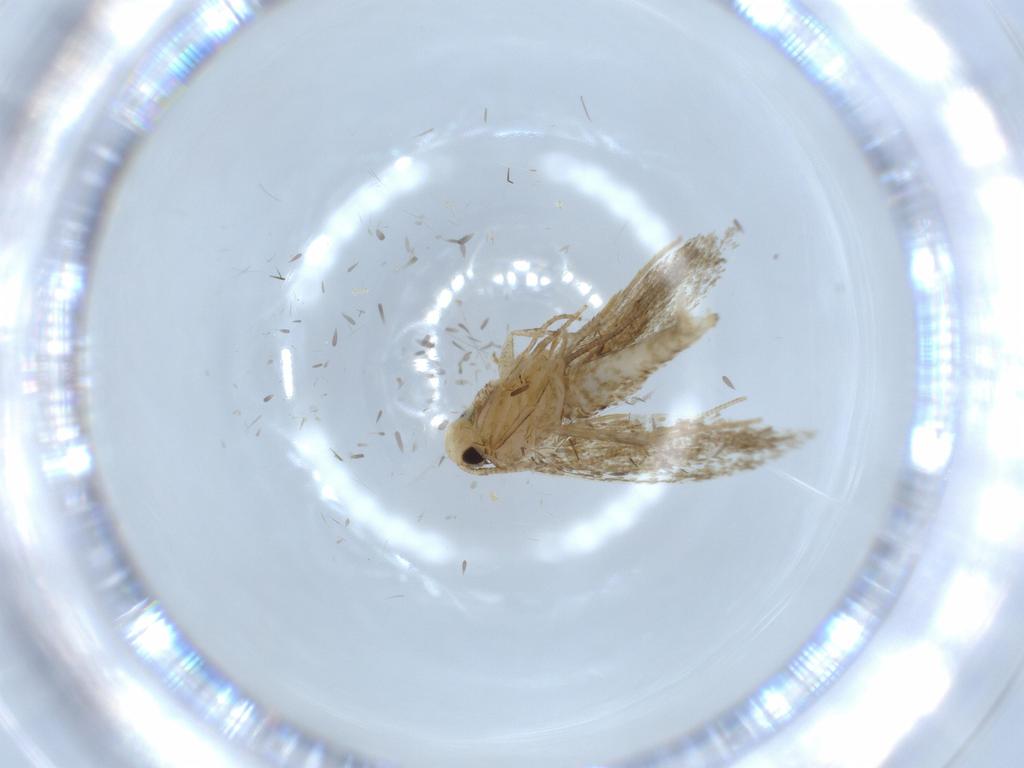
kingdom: Animalia
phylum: Arthropoda
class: Insecta
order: Lepidoptera
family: Tineidae
